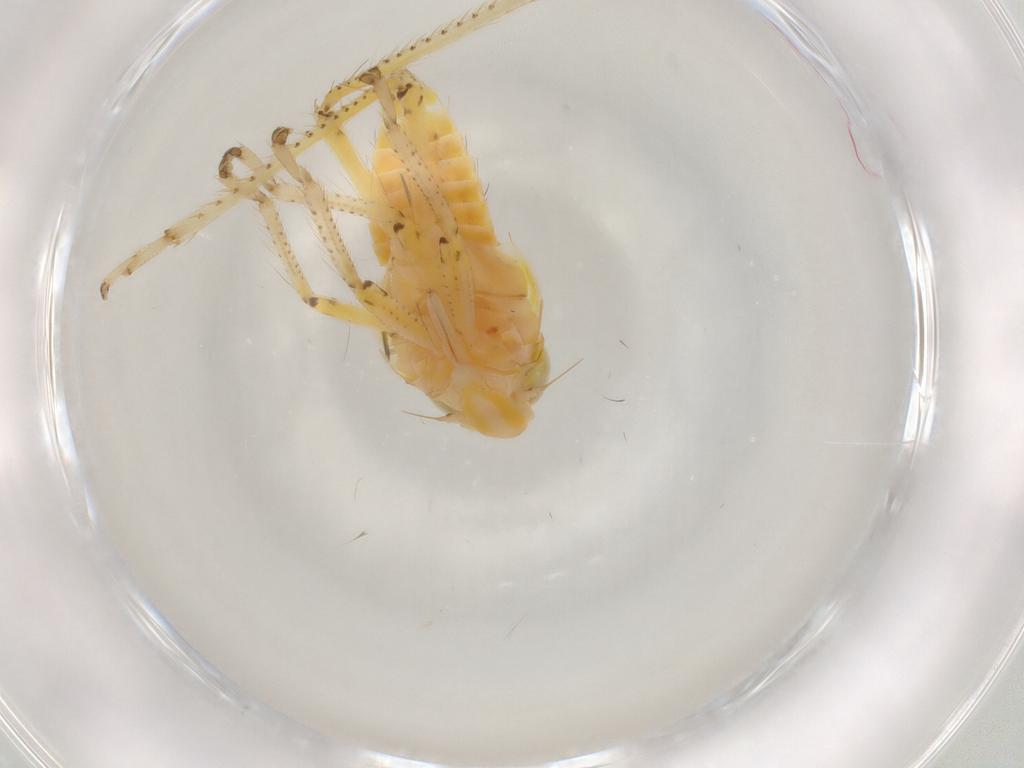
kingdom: Animalia
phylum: Arthropoda
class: Insecta
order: Hemiptera
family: Cicadellidae
